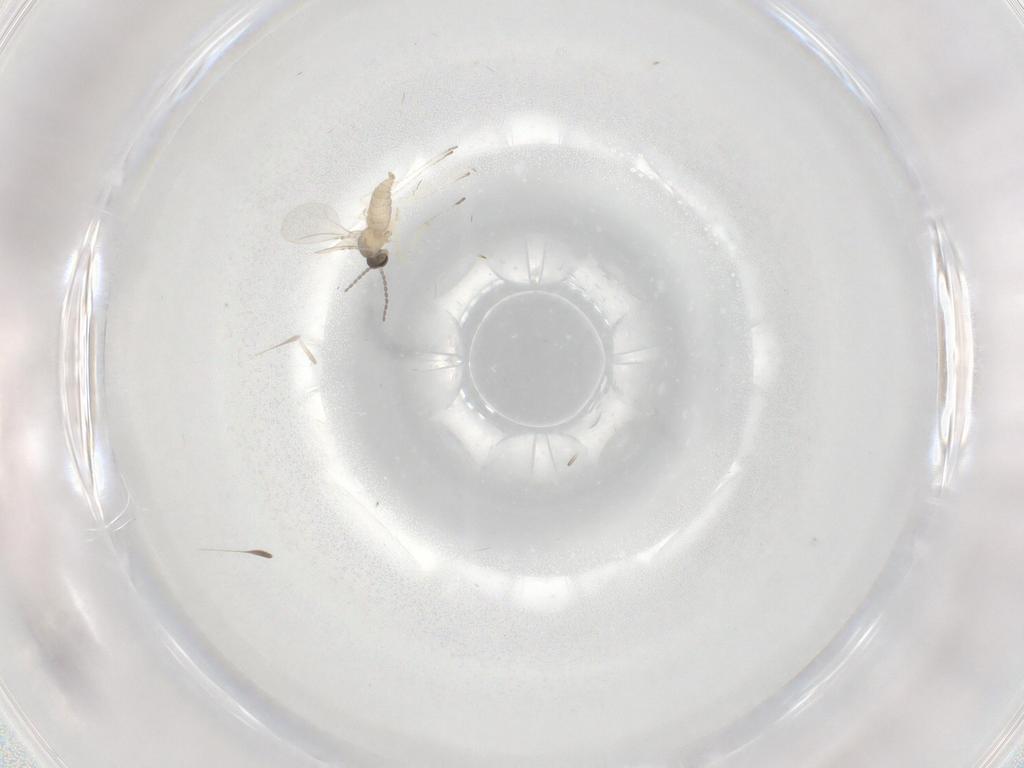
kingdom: Animalia
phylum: Arthropoda
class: Insecta
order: Diptera
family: Cecidomyiidae
